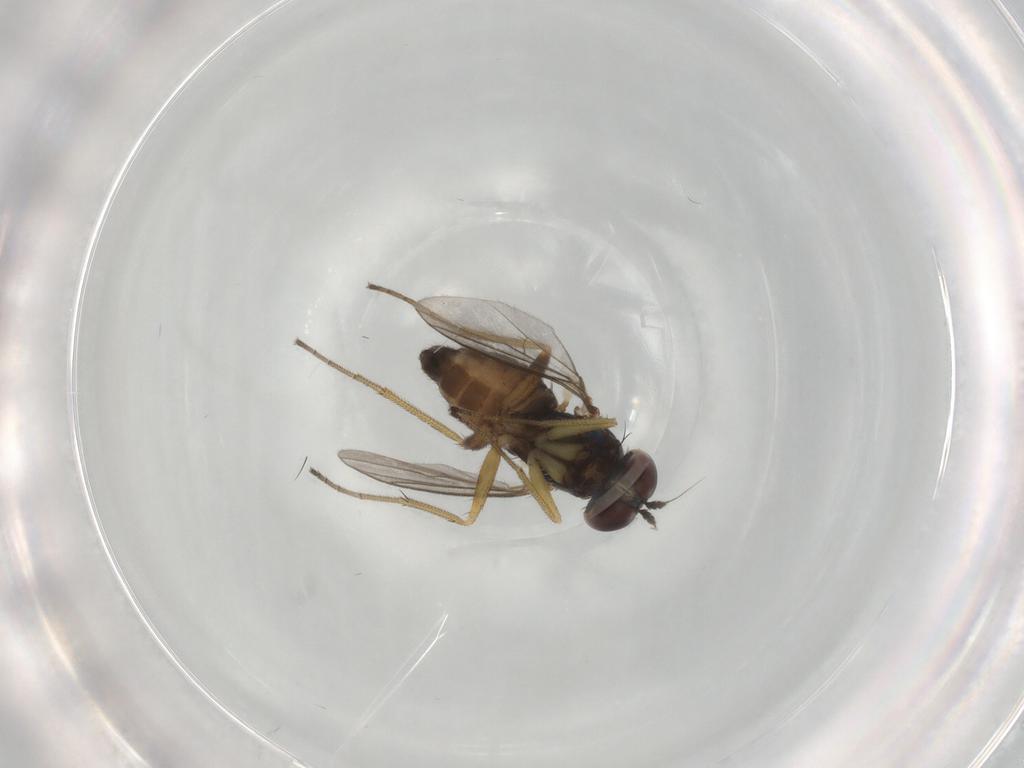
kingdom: Animalia
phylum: Arthropoda
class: Insecta
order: Diptera
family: Dolichopodidae
